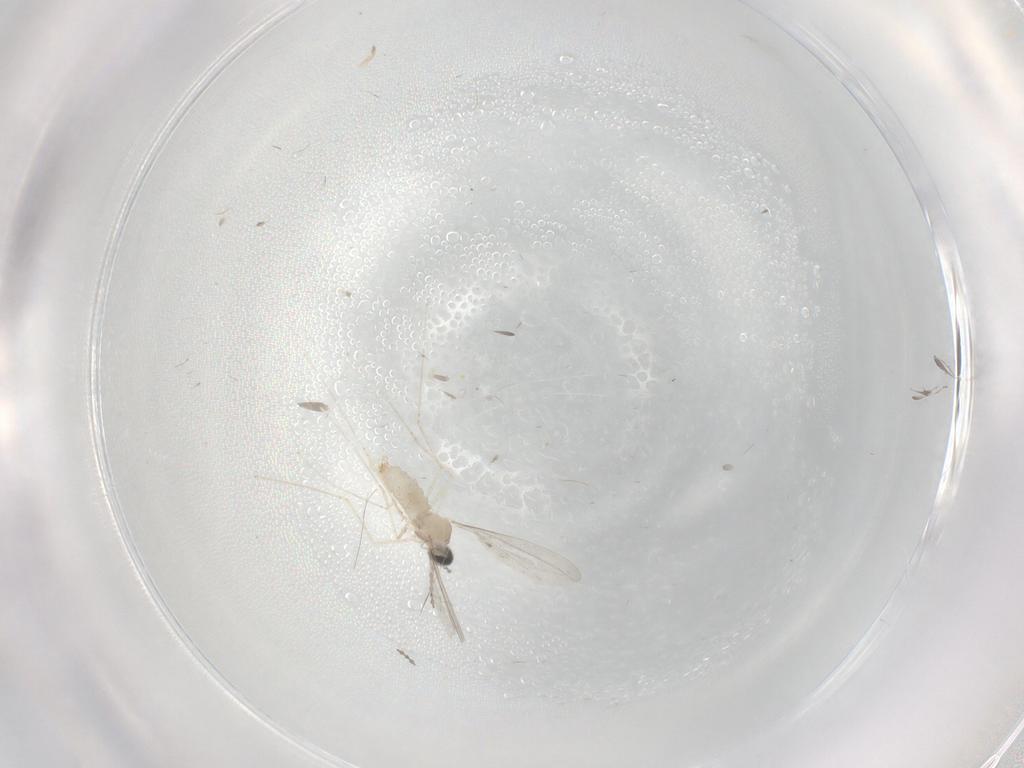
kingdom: Animalia
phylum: Arthropoda
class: Insecta
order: Diptera
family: Cecidomyiidae
